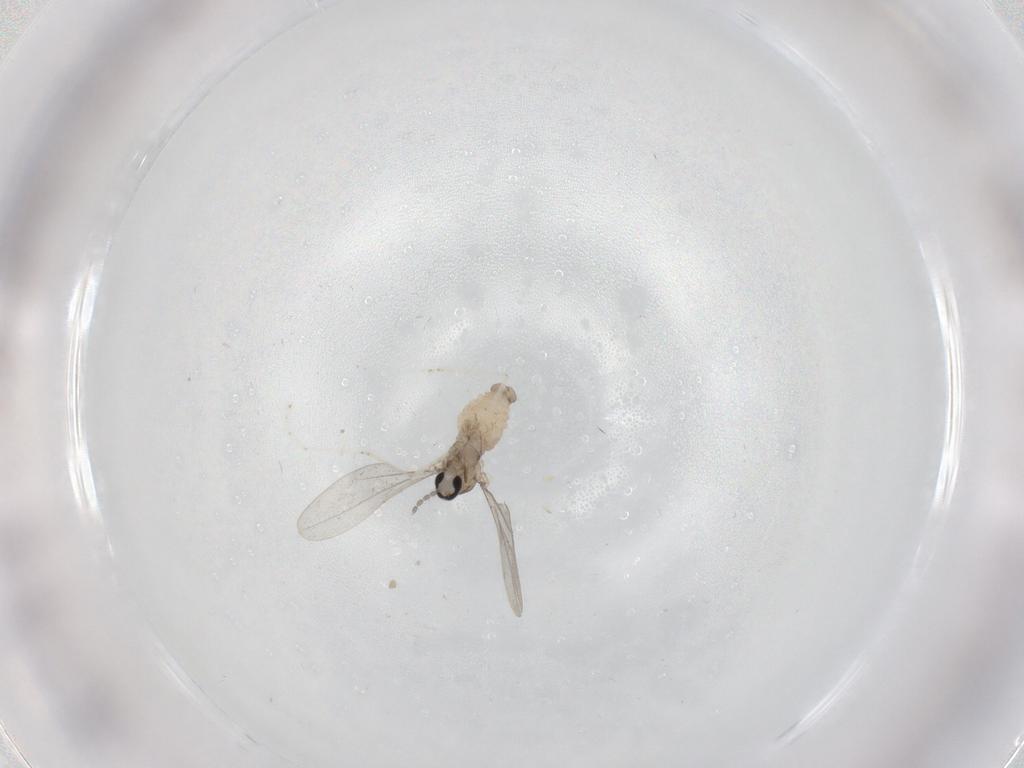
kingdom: Animalia
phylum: Arthropoda
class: Insecta
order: Diptera
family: Cecidomyiidae
